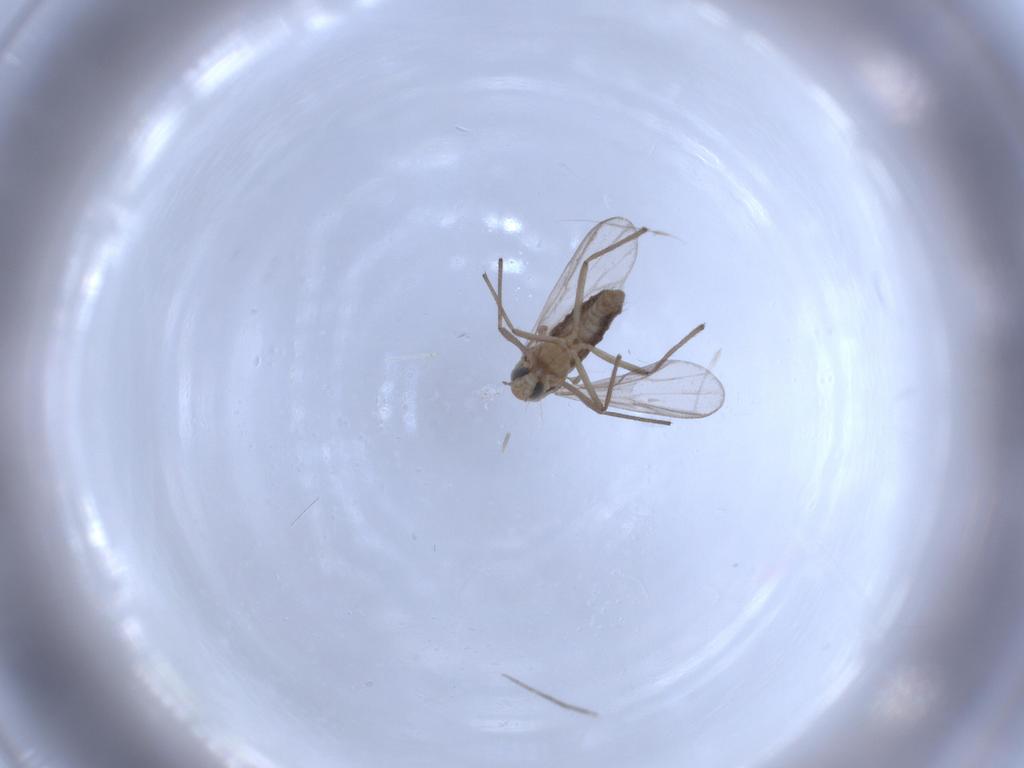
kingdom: Animalia
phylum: Arthropoda
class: Insecta
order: Diptera
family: Chironomidae
